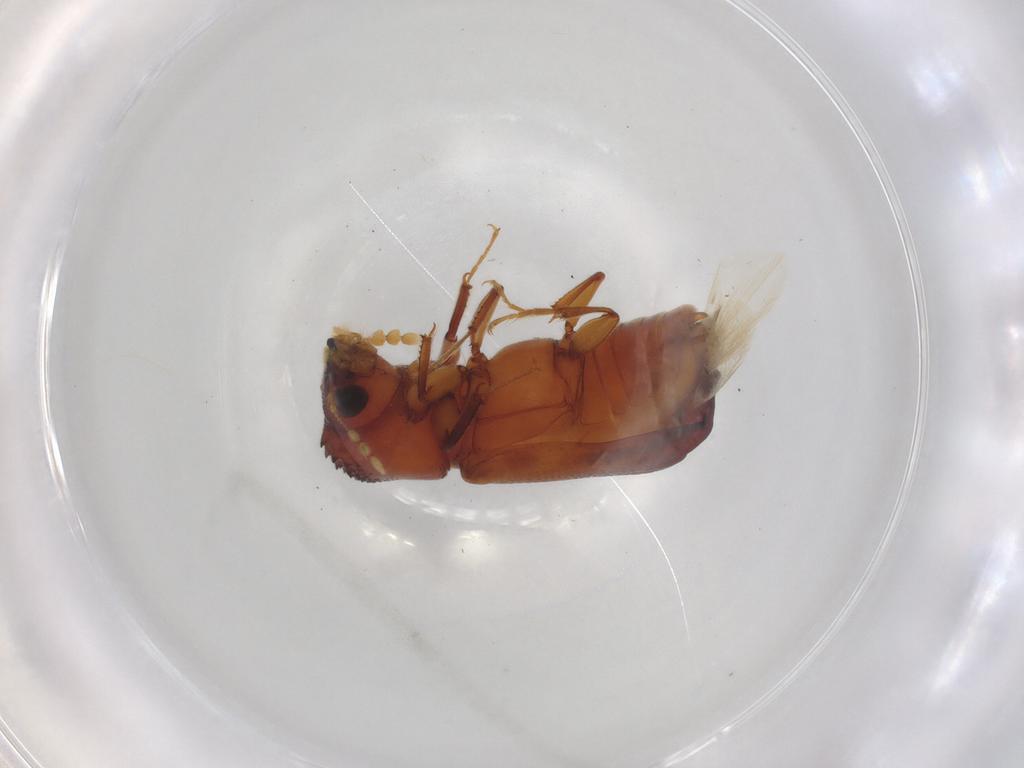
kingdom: Animalia
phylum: Arthropoda
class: Insecta
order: Coleoptera
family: Bostrichidae
